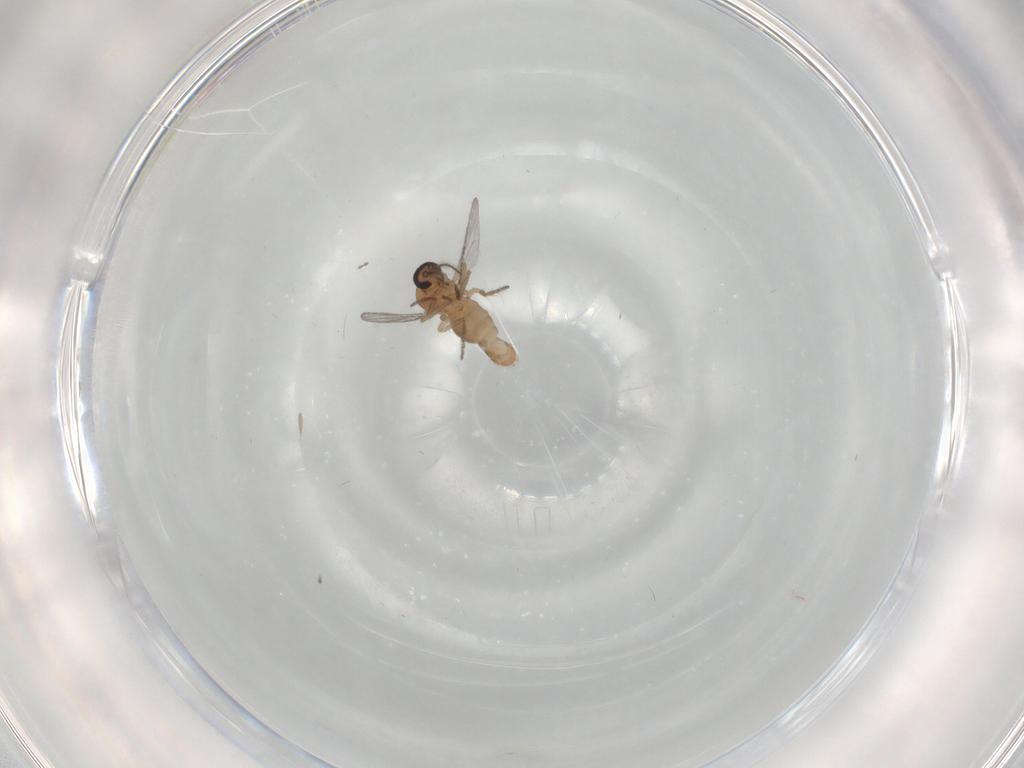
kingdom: Animalia
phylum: Arthropoda
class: Insecta
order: Diptera
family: Ceratopogonidae
